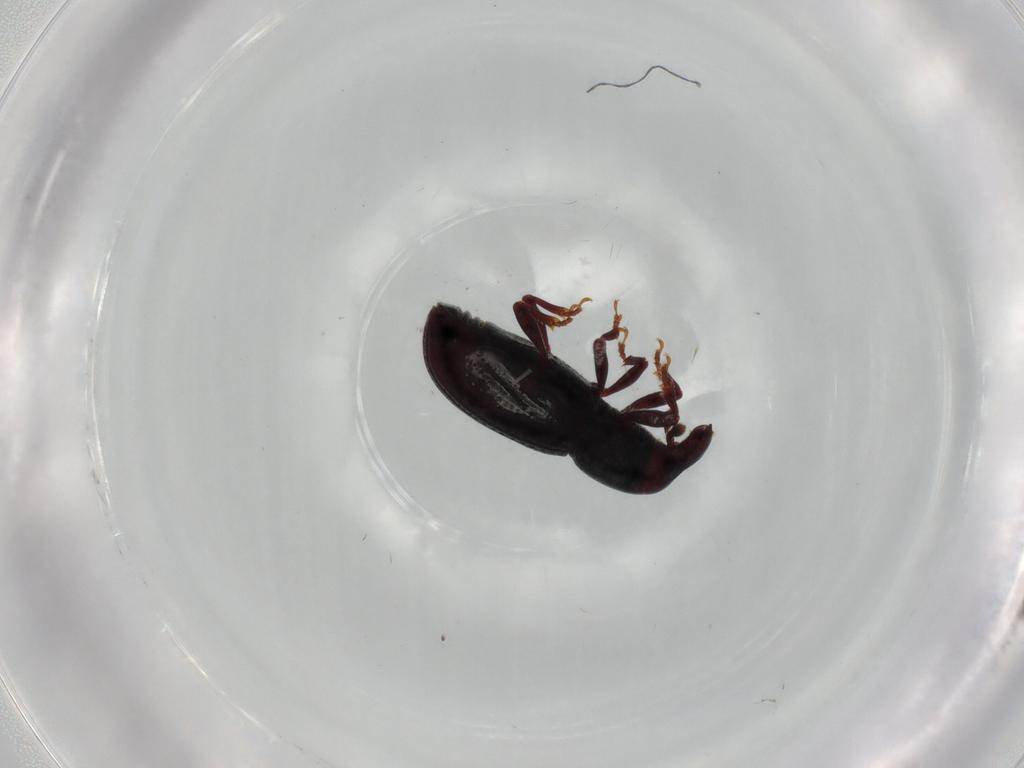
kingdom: Animalia
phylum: Arthropoda
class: Insecta
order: Coleoptera
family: Curculionidae
